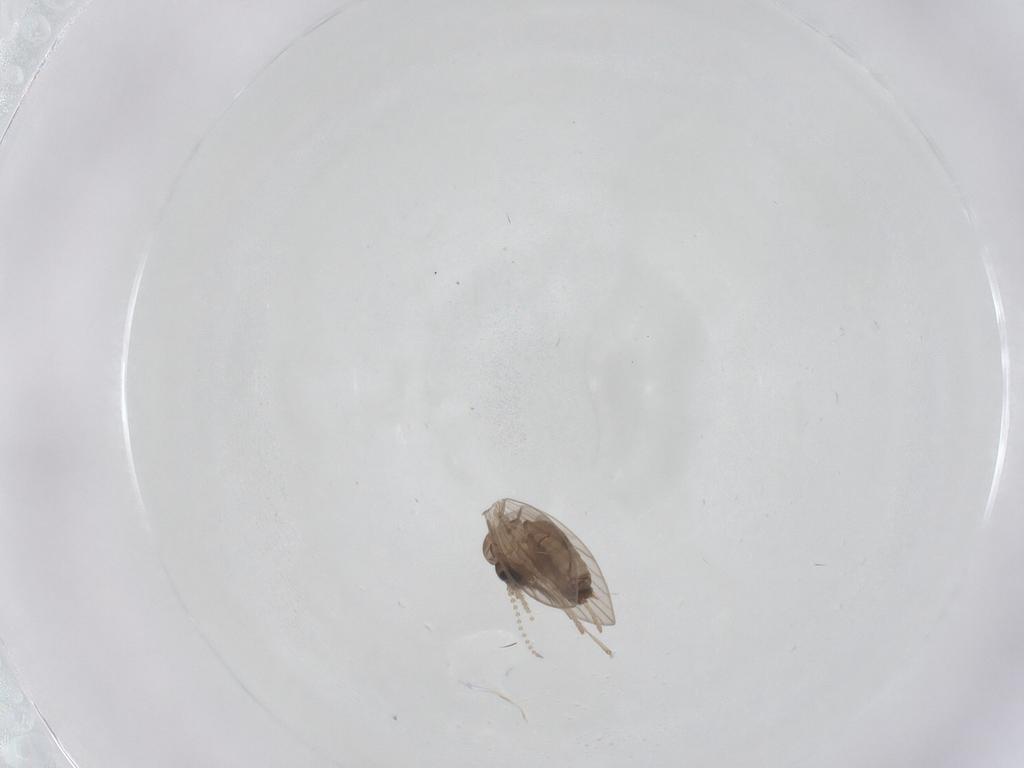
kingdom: Animalia
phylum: Arthropoda
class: Insecta
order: Diptera
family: Psychodidae
